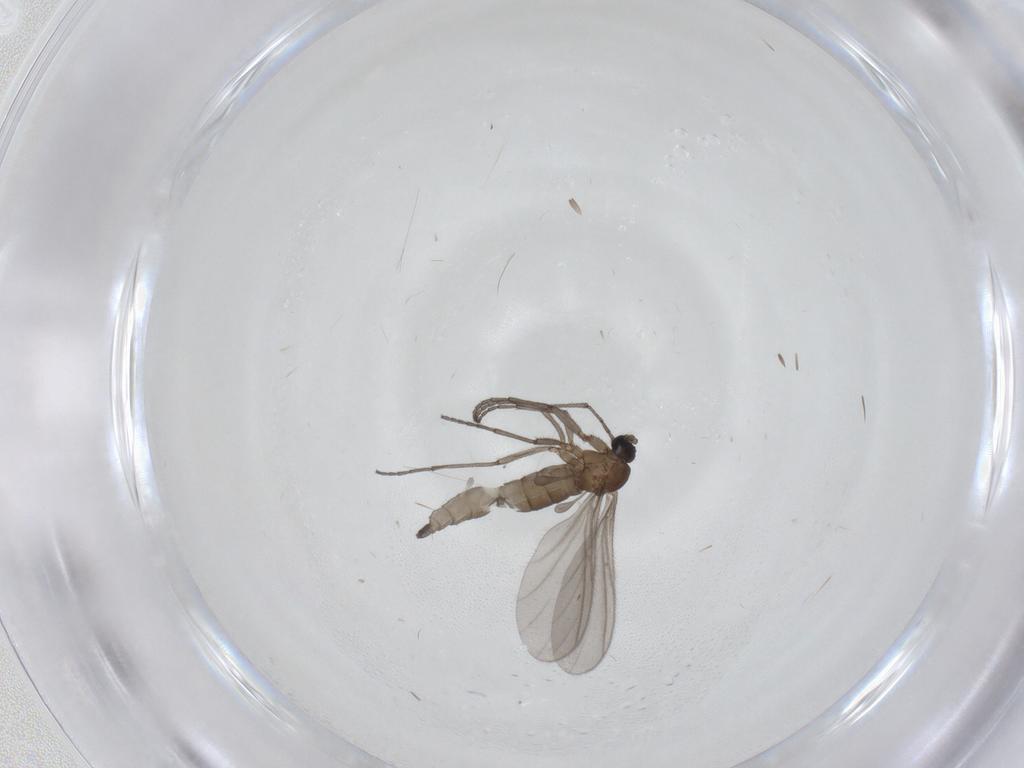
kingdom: Animalia
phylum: Arthropoda
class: Insecta
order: Diptera
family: Sciaridae
